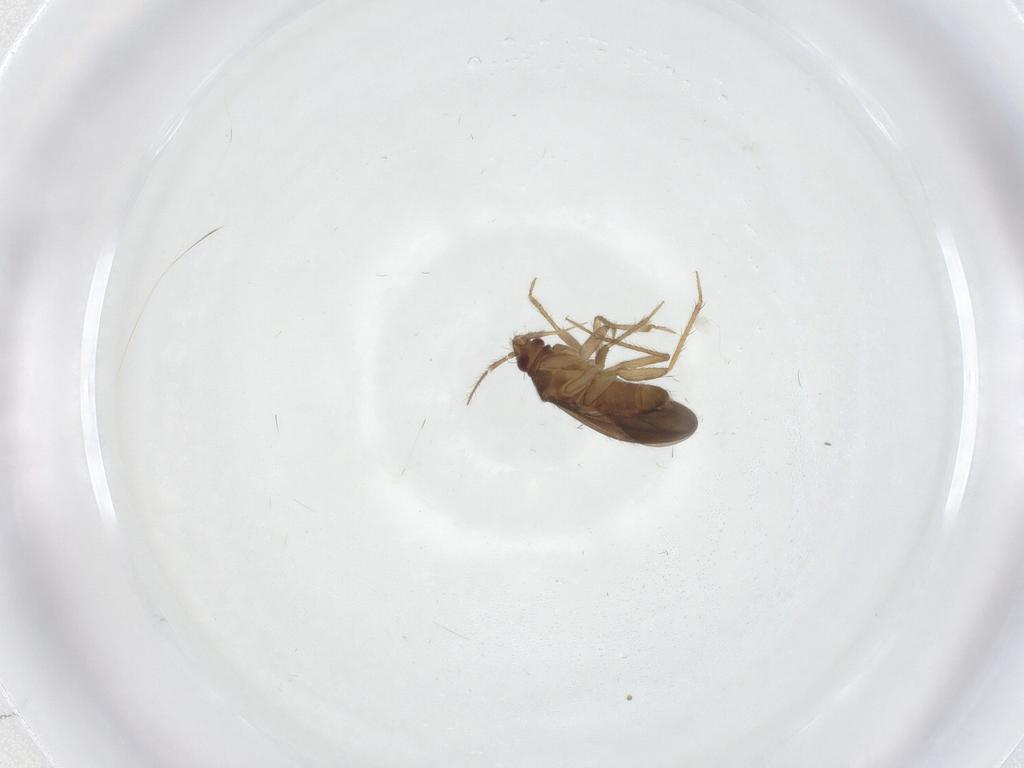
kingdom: Animalia
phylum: Arthropoda
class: Insecta
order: Hemiptera
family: Ceratocombidae
